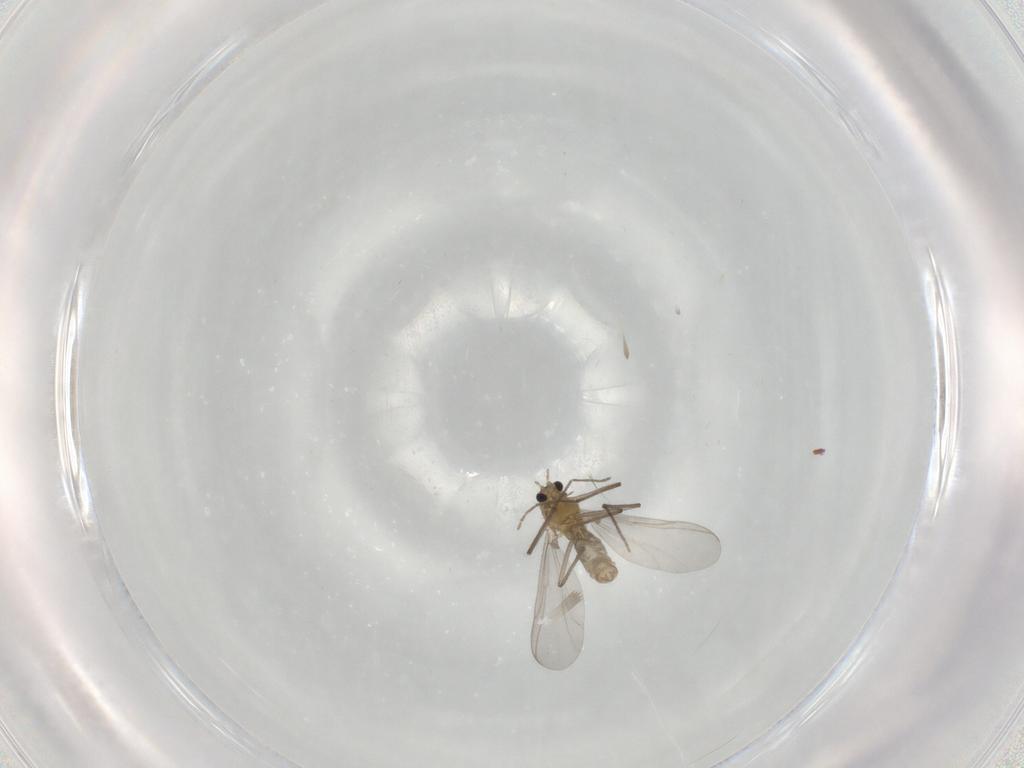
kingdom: Animalia
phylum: Arthropoda
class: Insecta
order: Diptera
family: Chironomidae
